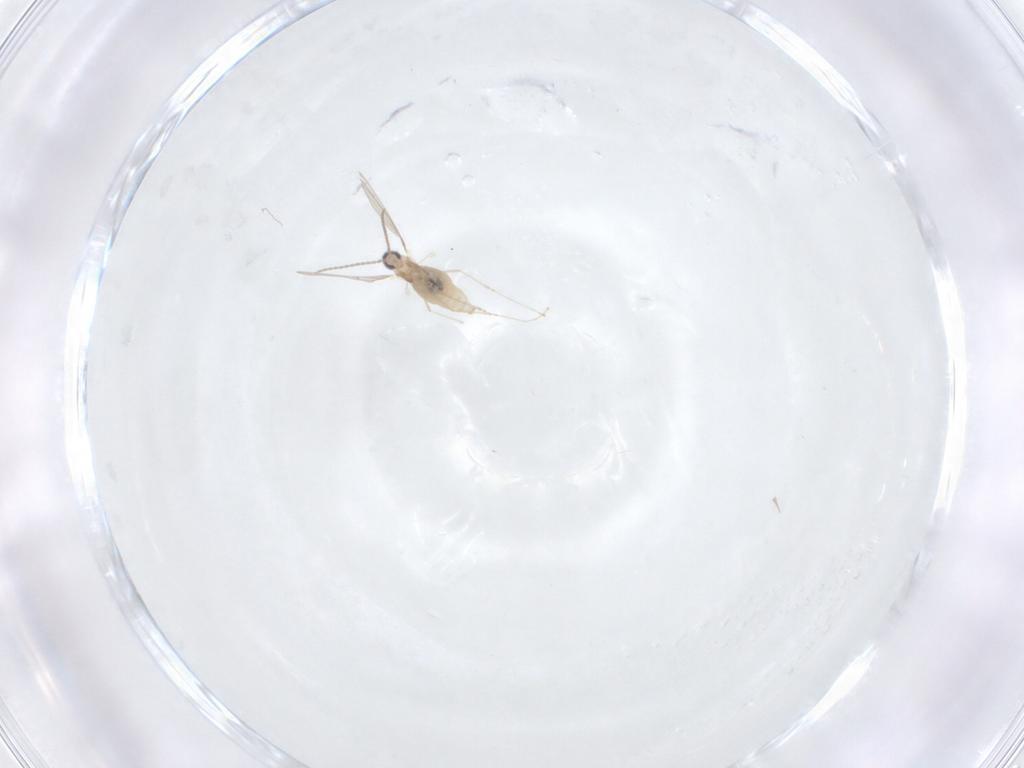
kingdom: Animalia
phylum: Arthropoda
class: Insecta
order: Diptera
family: Cecidomyiidae
